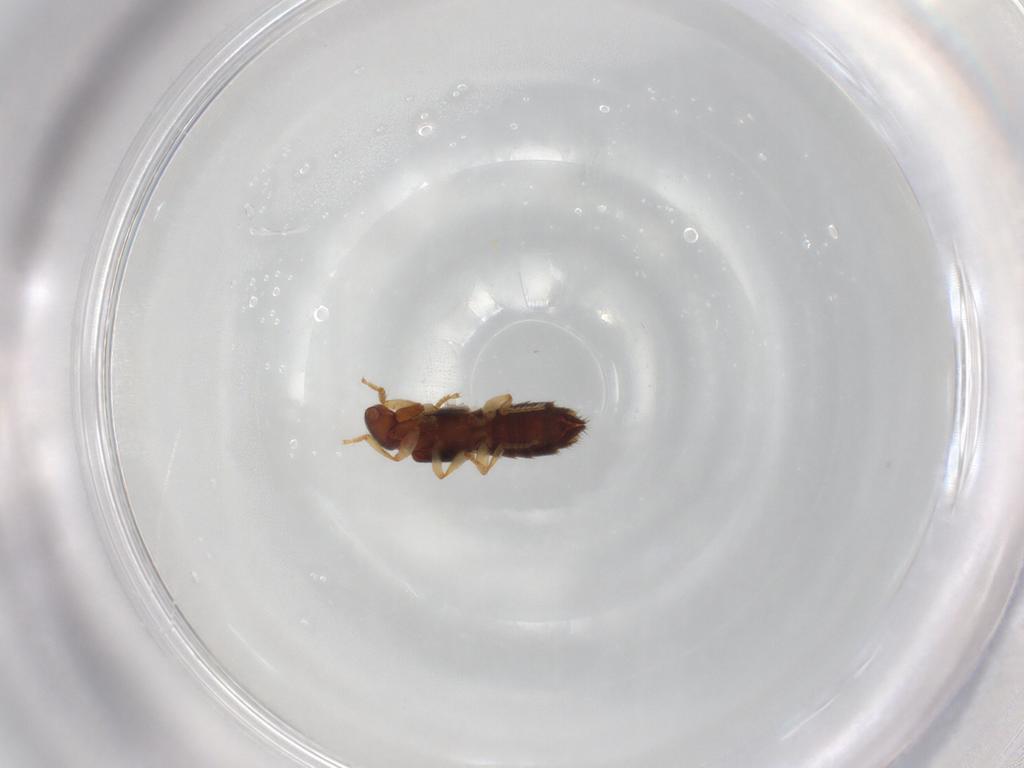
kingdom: Animalia
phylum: Arthropoda
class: Insecta
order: Coleoptera
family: Staphylinidae
